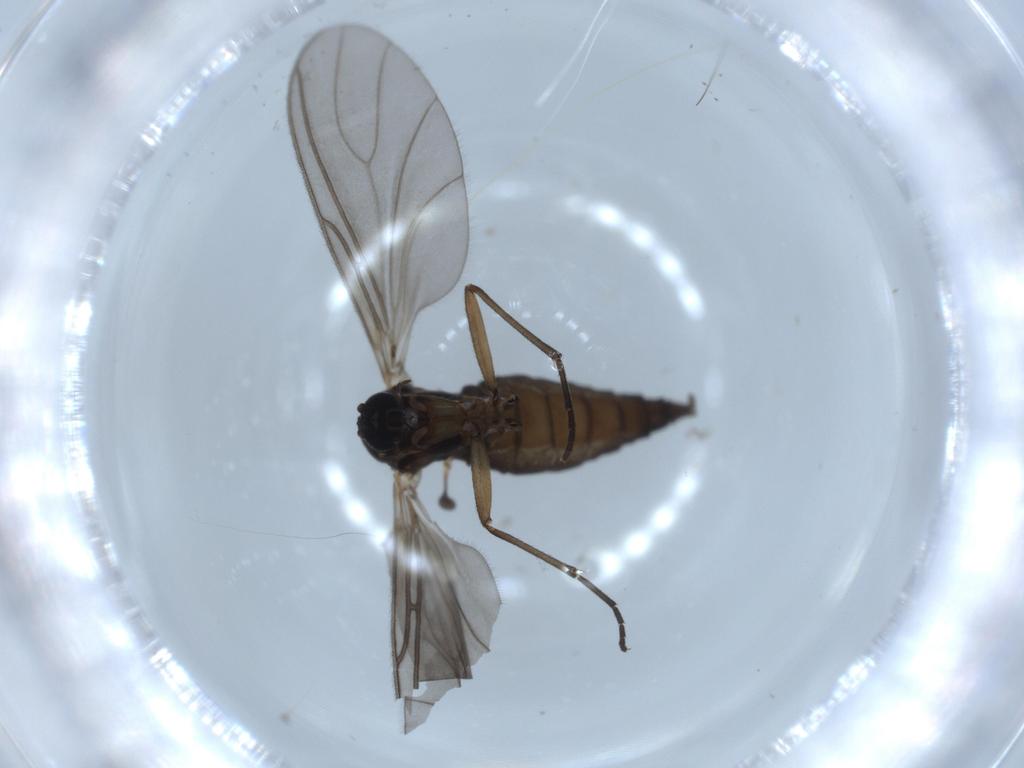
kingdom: Animalia
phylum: Arthropoda
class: Insecta
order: Diptera
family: Sciaridae
